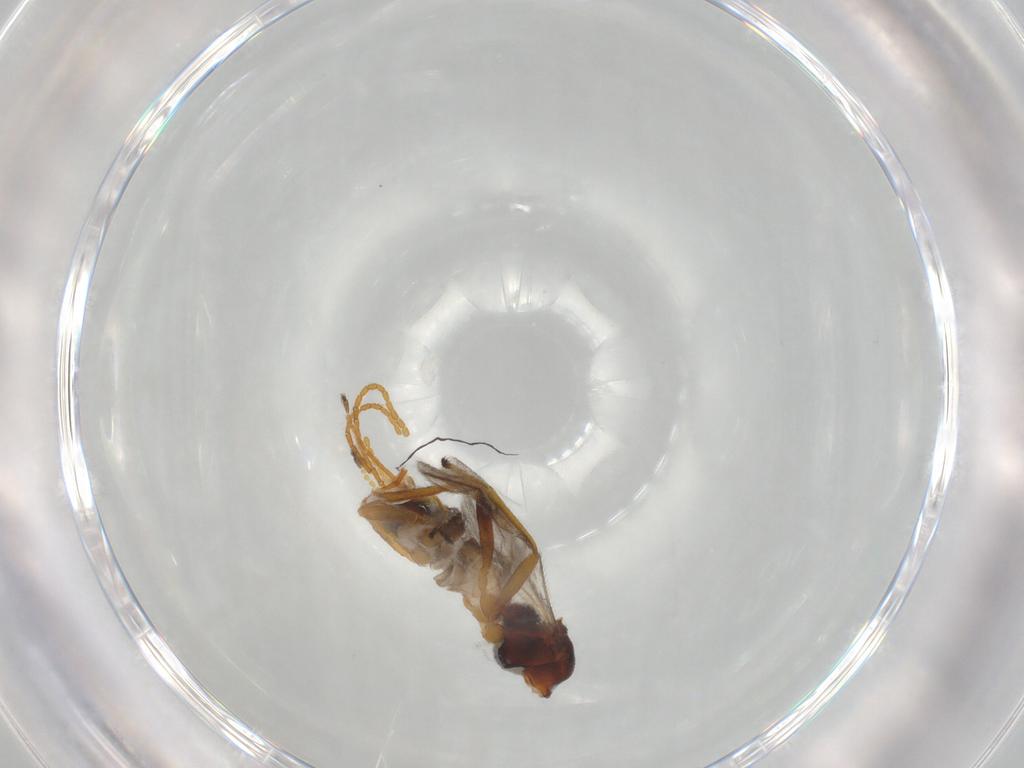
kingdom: Animalia
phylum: Arthropoda
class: Insecta
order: Hymenoptera
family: Braconidae
